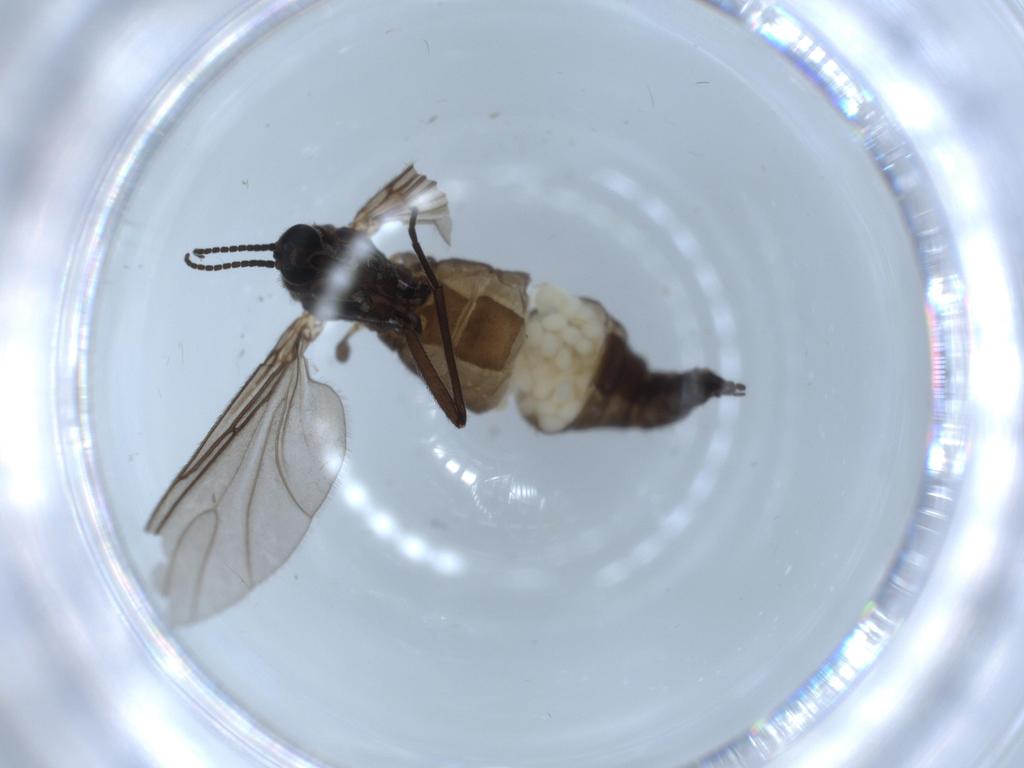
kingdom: Animalia
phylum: Arthropoda
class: Insecta
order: Diptera
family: Sciaridae
